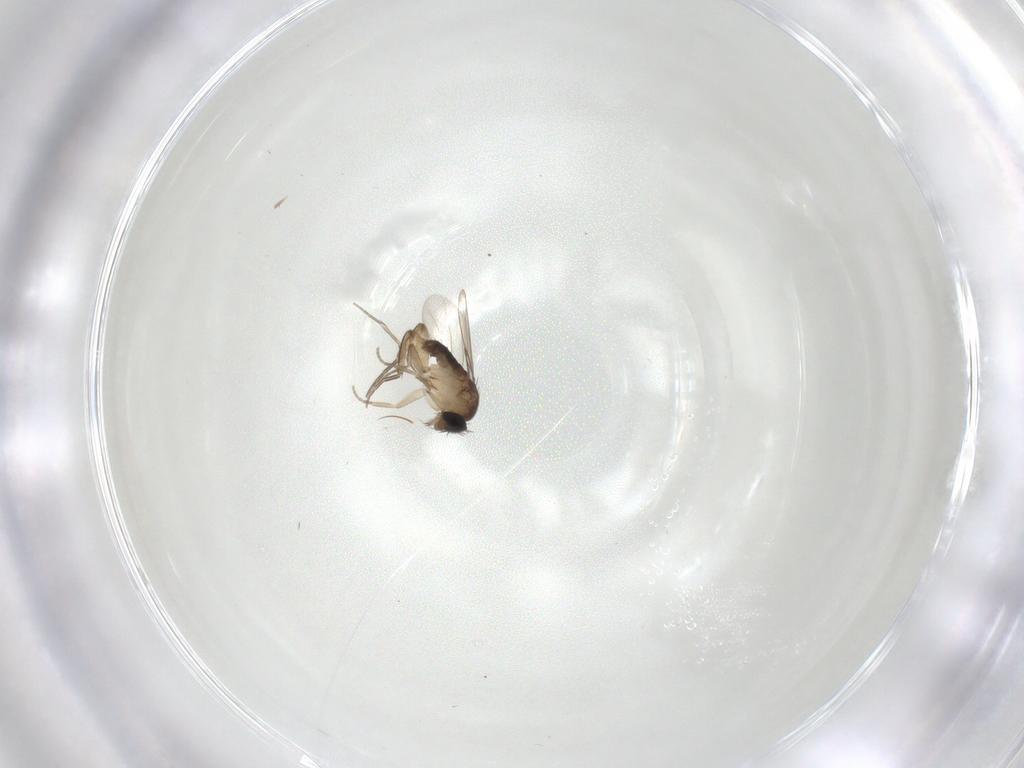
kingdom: Animalia
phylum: Arthropoda
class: Insecta
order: Diptera
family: Phoridae
